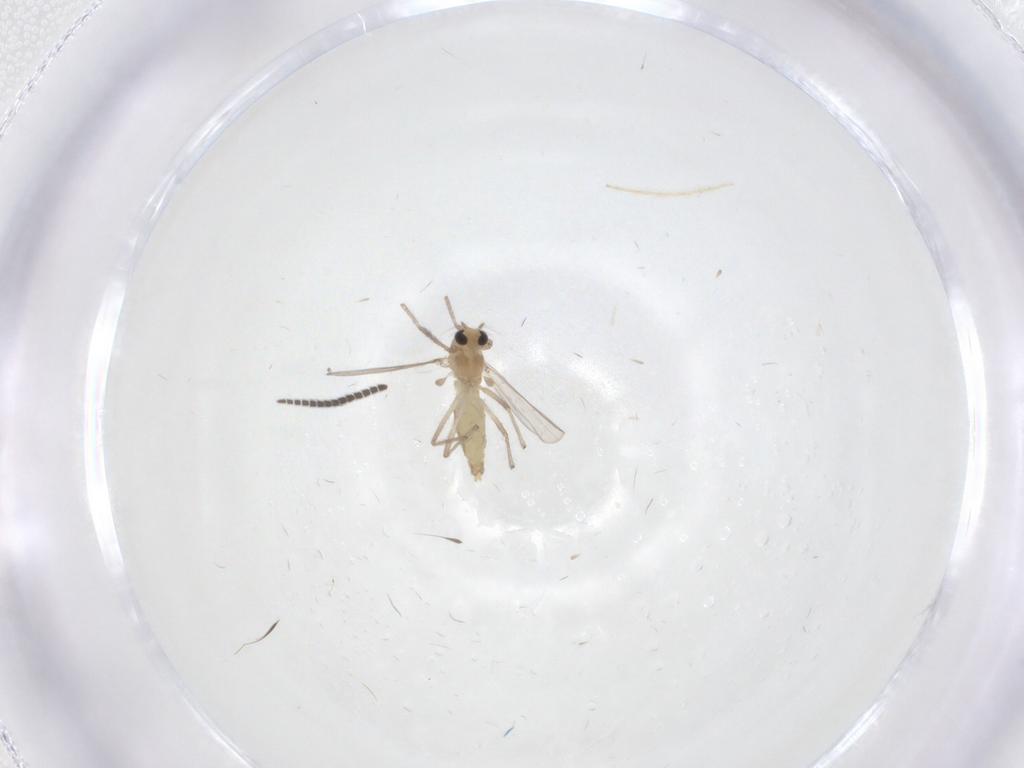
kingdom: Animalia
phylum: Arthropoda
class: Insecta
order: Diptera
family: Chironomidae
